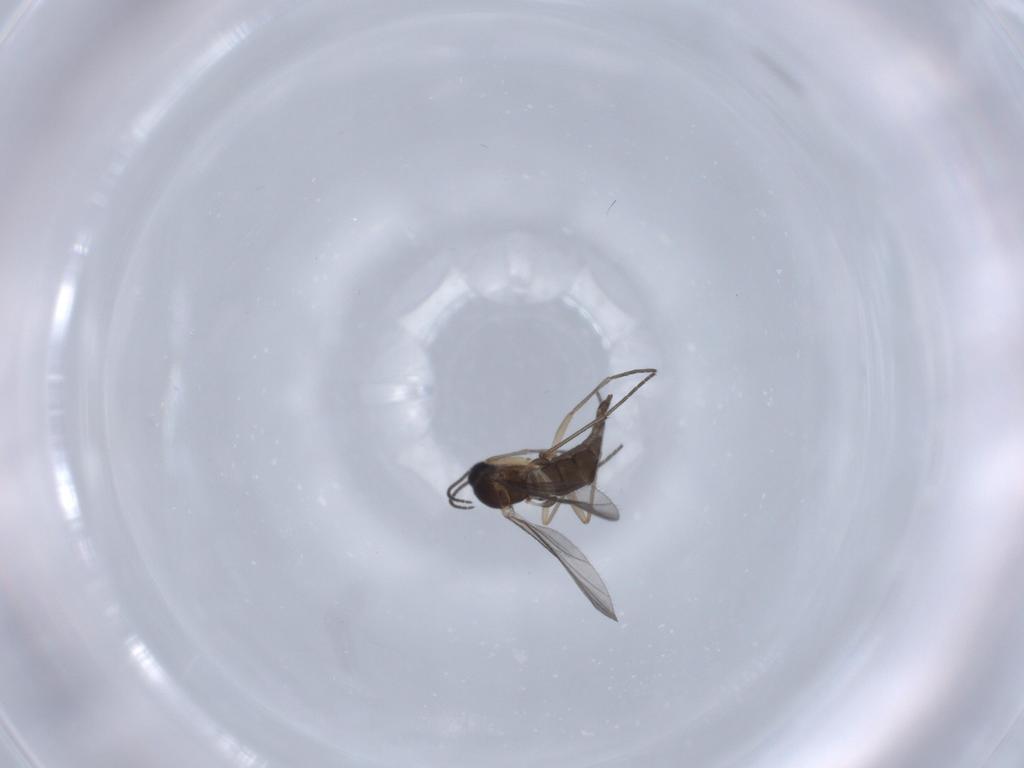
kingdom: Animalia
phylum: Arthropoda
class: Insecta
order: Diptera
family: Sciaridae
